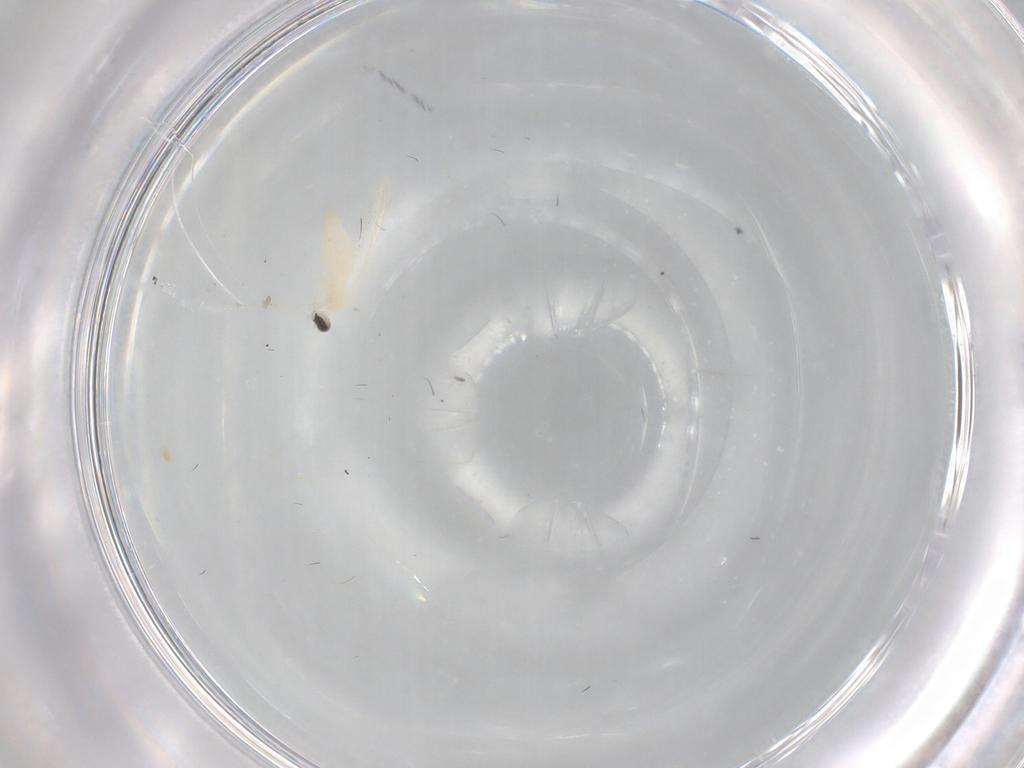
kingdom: Animalia
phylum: Arthropoda
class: Insecta
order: Diptera
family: Cecidomyiidae
